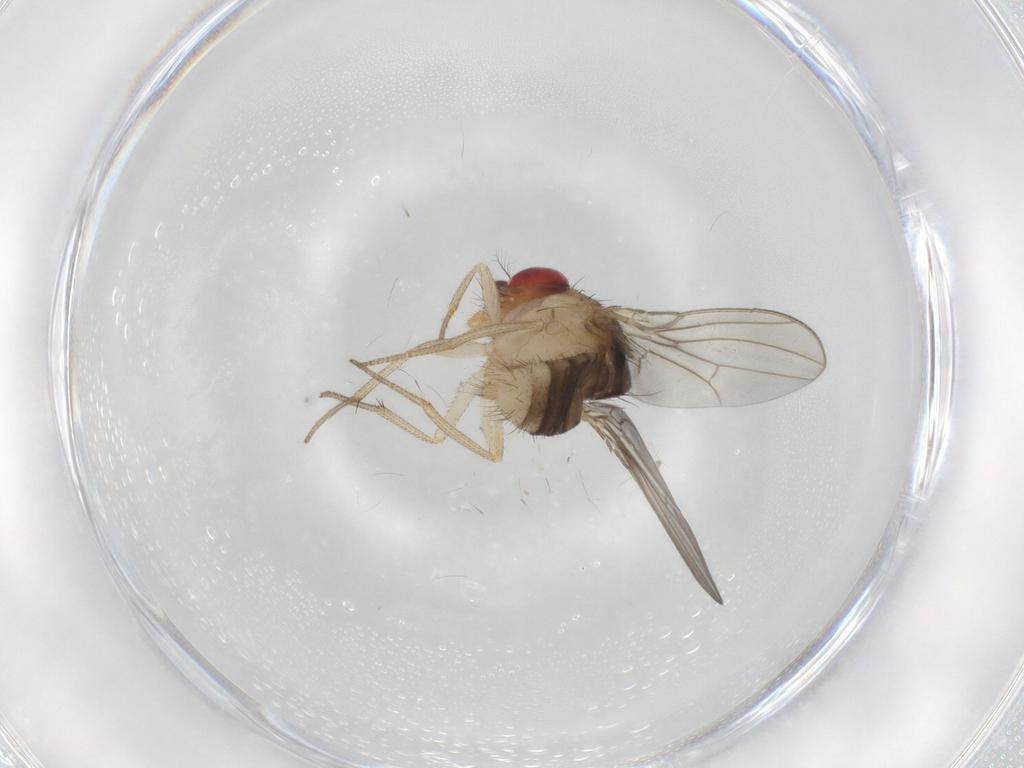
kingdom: Animalia
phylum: Arthropoda
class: Insecta
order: Diptera
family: Drosophilidae
